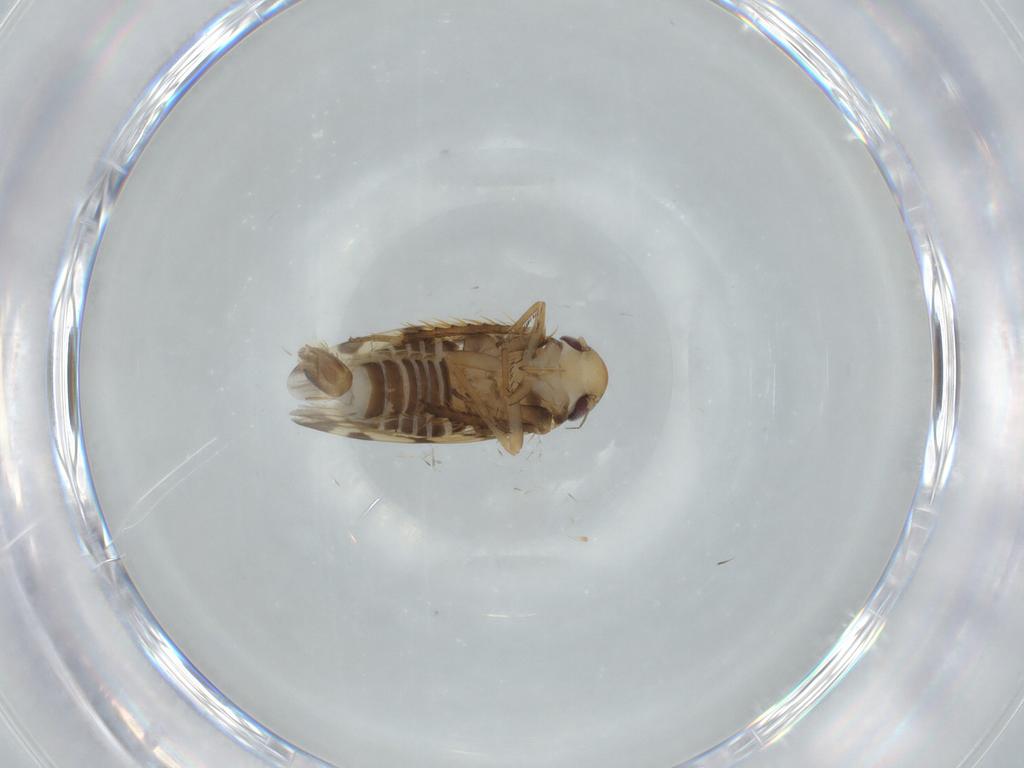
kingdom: Animalia
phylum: Arthropoda
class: Insecta
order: Hemiptera
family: Cicadellidae
